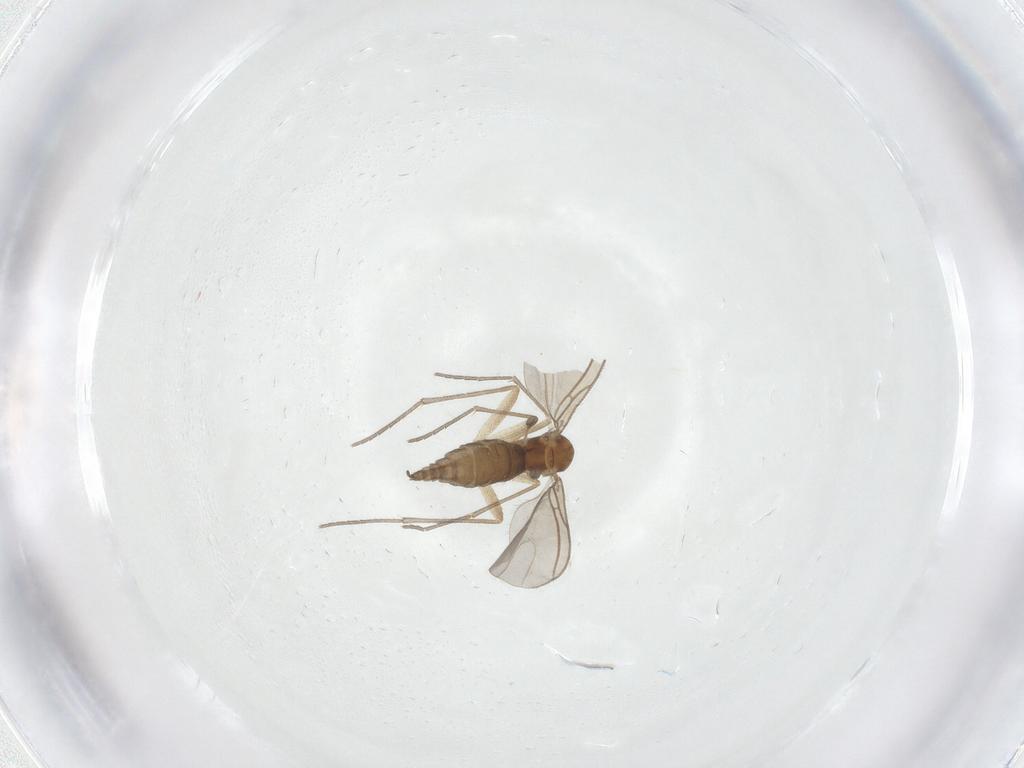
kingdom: Animalia
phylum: Arthropoda
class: Insecta
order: Diptera
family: Sciaridae
